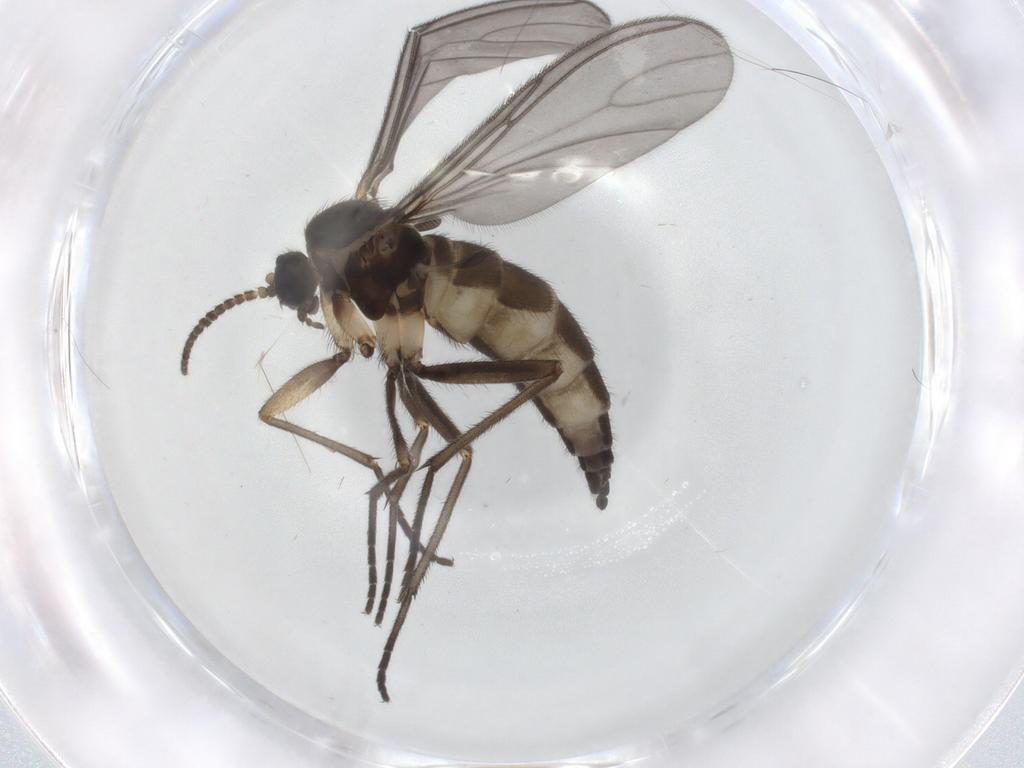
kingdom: Animalia
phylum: Arthropoda
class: Insecta
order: Diptera
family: Sciaridae
